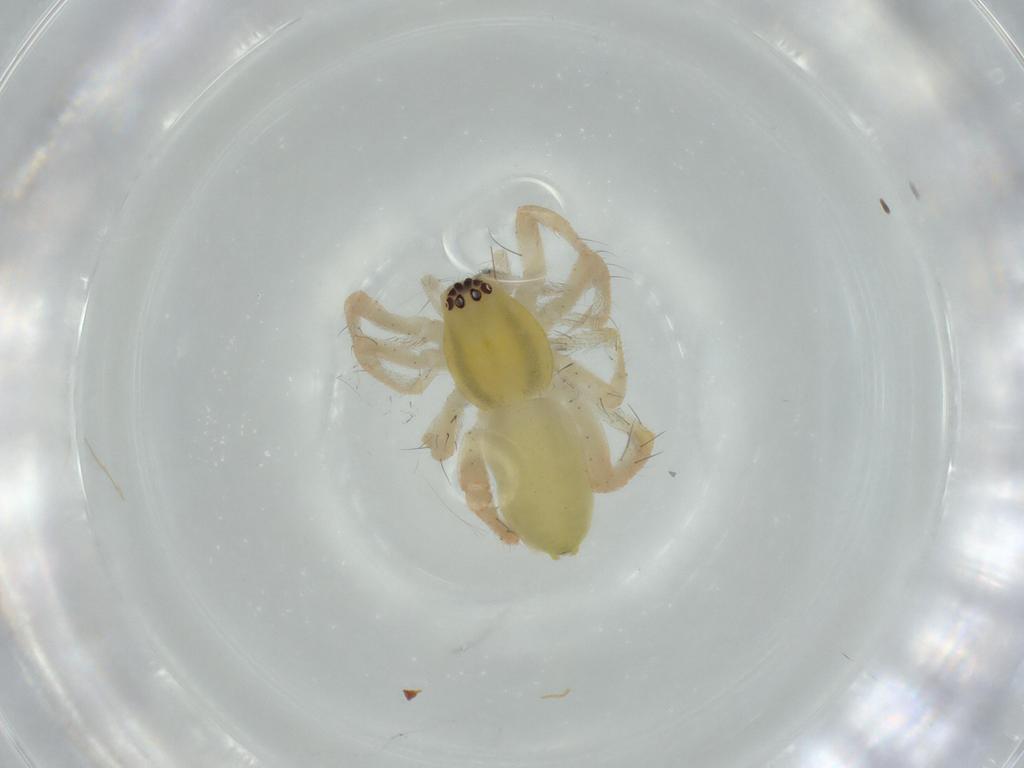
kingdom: Animalia
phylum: Arthropoda
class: Arachnida
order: Araneae
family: Anyphaenidae
